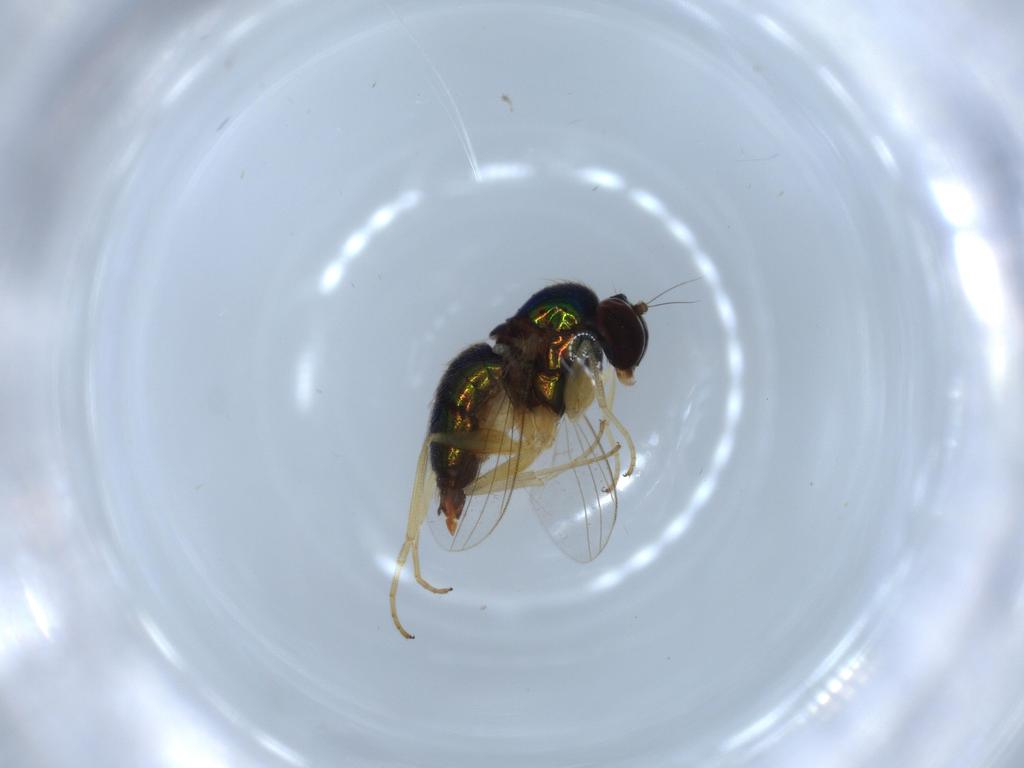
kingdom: Animalia
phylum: Arthropoda
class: Insecta
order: Diptera
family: Dolichopodidae
